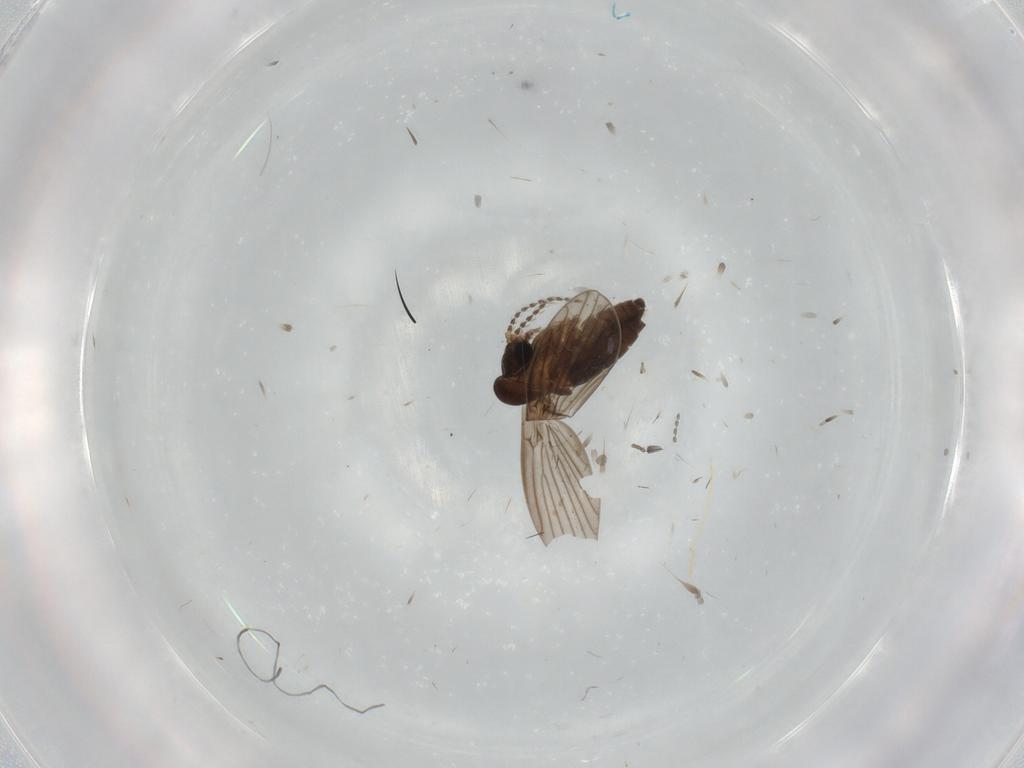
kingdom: Animalia
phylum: Arthropoda
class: Insecta
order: Diptera
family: Cecidomyiidae
